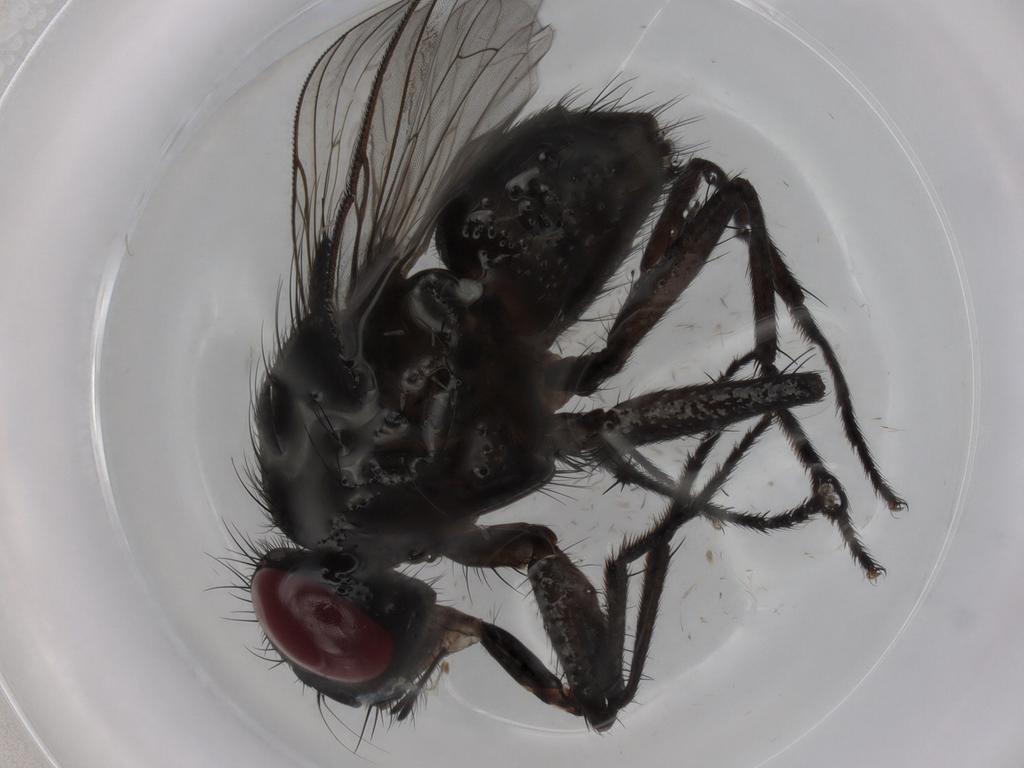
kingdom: Animalia
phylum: Arthropoda
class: Insecta
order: Diptera
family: Muscidae
